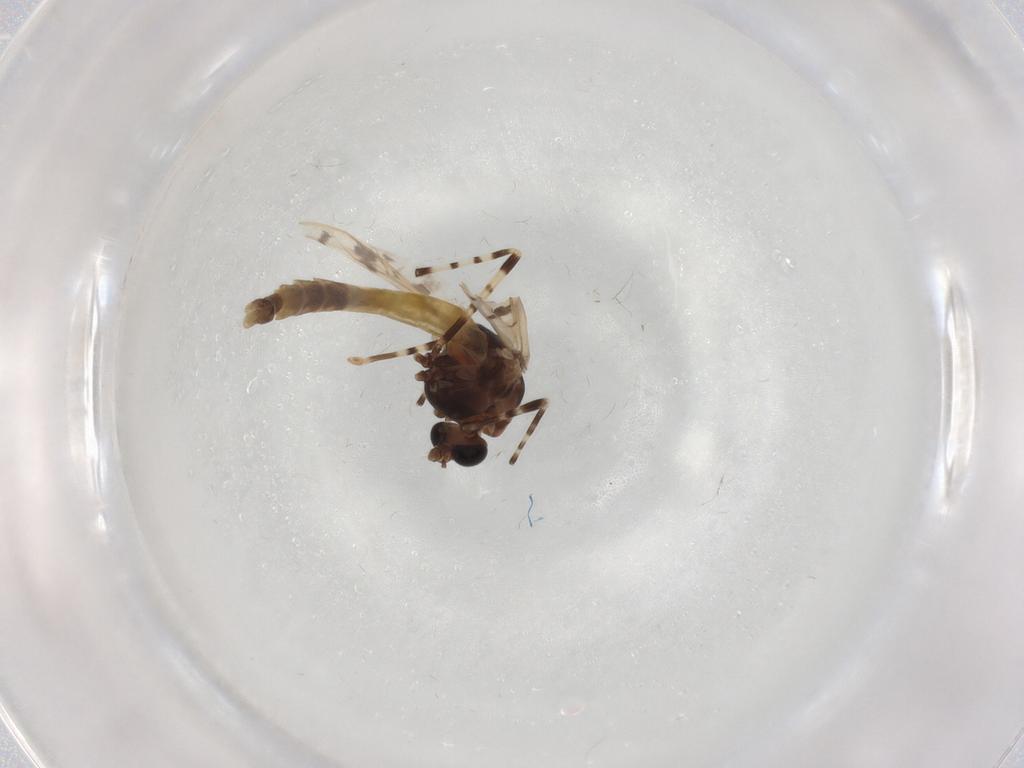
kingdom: Animalia
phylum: Arthropoda
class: Insecta
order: Diptera
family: Chironomidae
